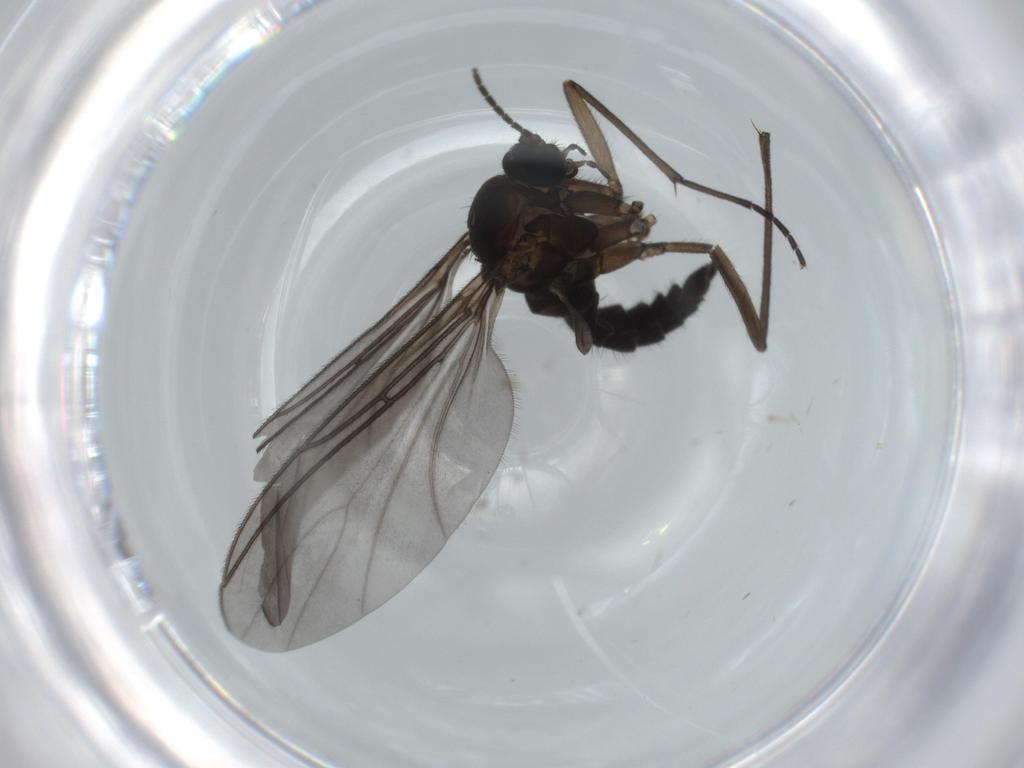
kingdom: Animalia
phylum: Arthropoda
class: Insecta
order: Diptera
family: Sciaridae
